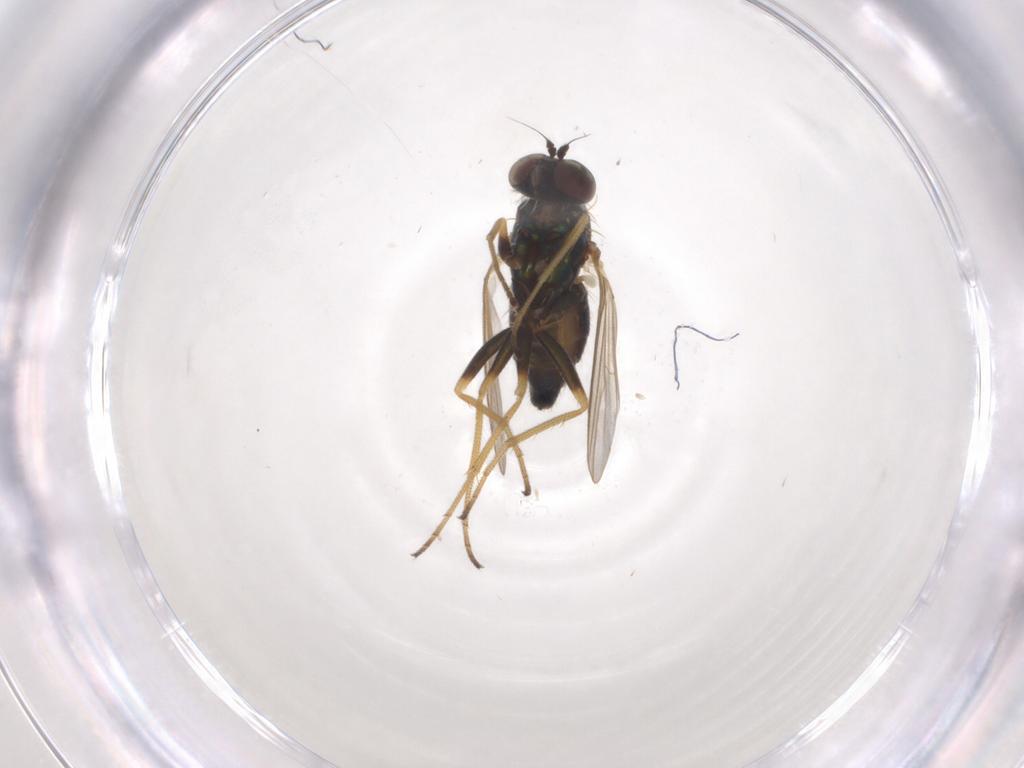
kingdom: Animalia
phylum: Arthropoda
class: Insecta
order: Diptera
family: Dolichopodidae
